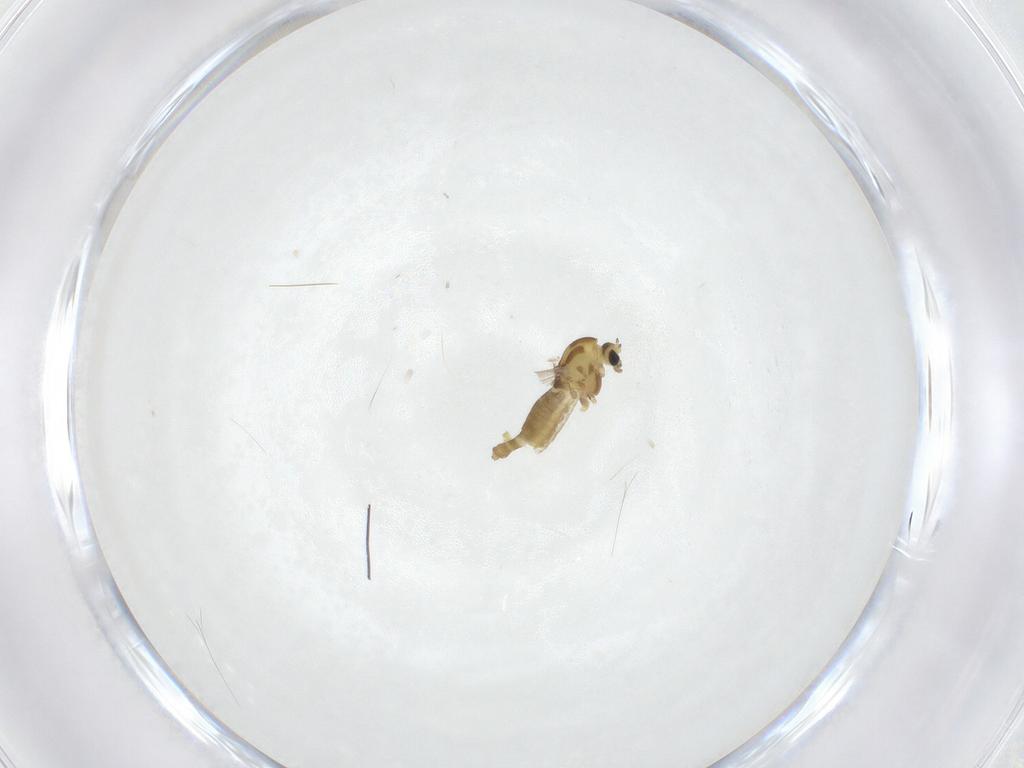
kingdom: Animalia
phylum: Arthropoda
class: Insecta
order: Diptera
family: Chironomidae
